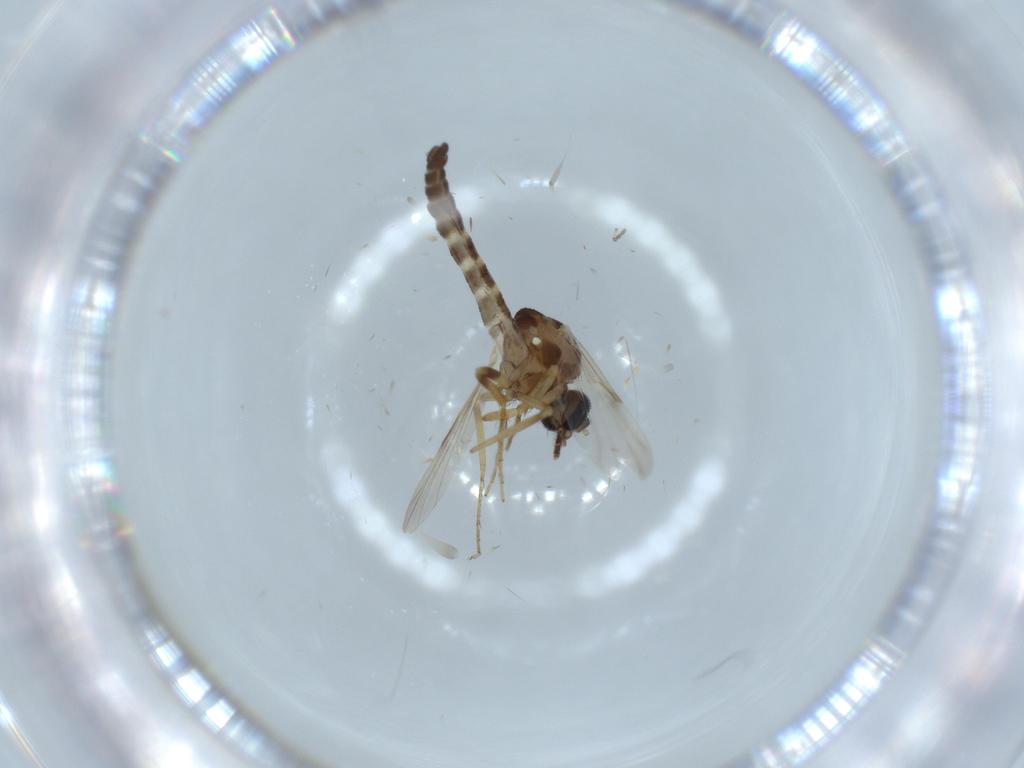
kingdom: Animalia
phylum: Arthropoda
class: Insecta
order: Diptera
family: Ceratopogonidae
